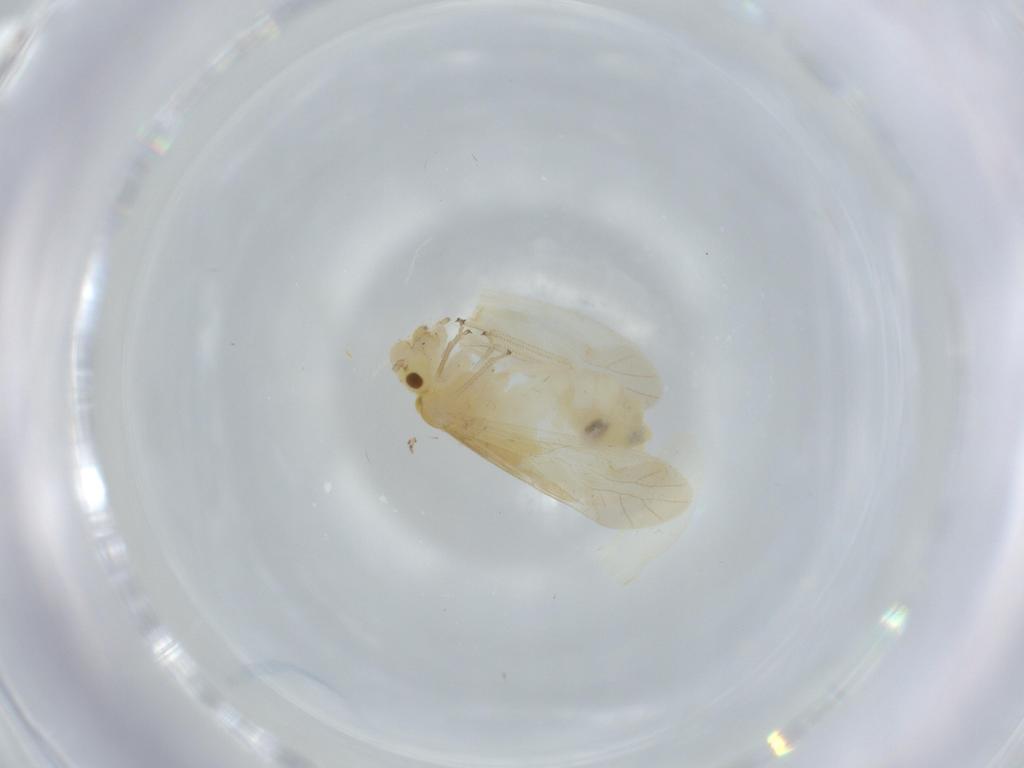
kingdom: Animalia
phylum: Arthropoda
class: Insecta
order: Psocodea
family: Caeciliusidae
